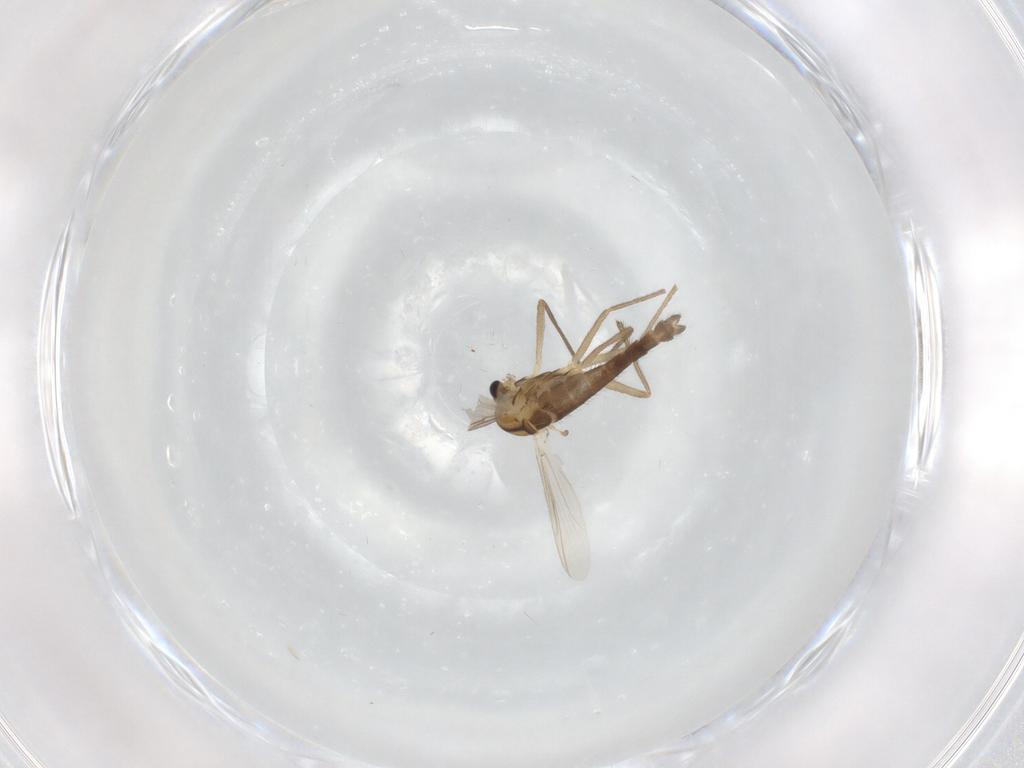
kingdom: Animalia
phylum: Arthropoda
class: Insecta
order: Diptera
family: Chironomidae
